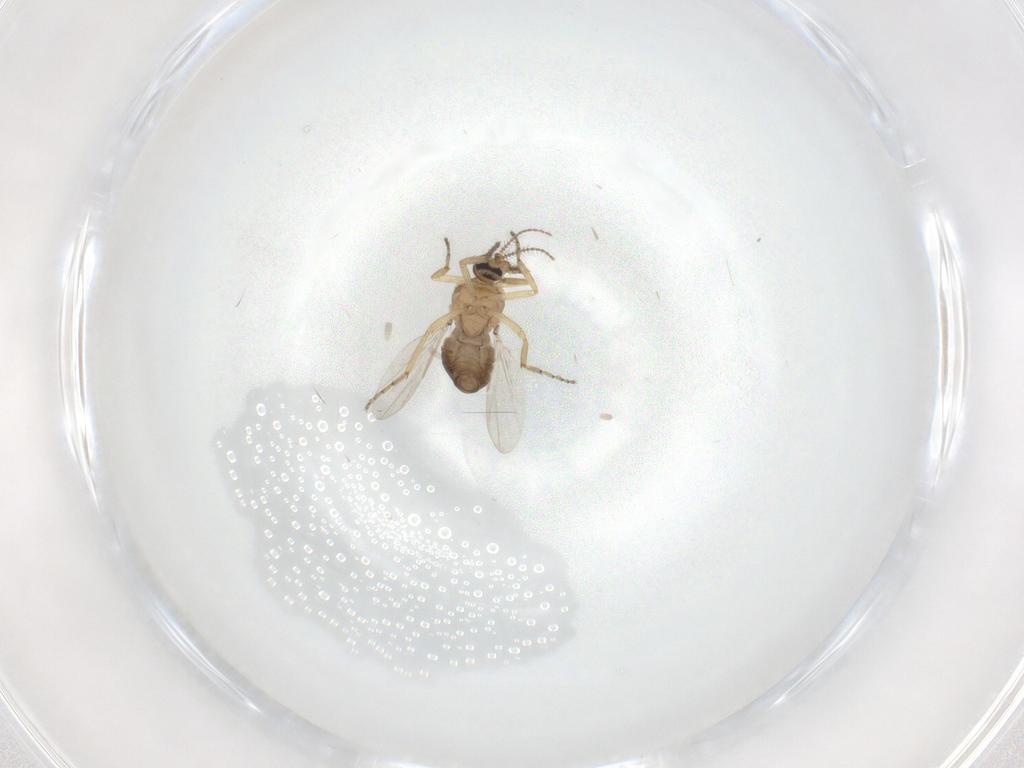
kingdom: Animalia
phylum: Arthropoda
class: Insecta
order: Diptera
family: Ceratopogonidae
